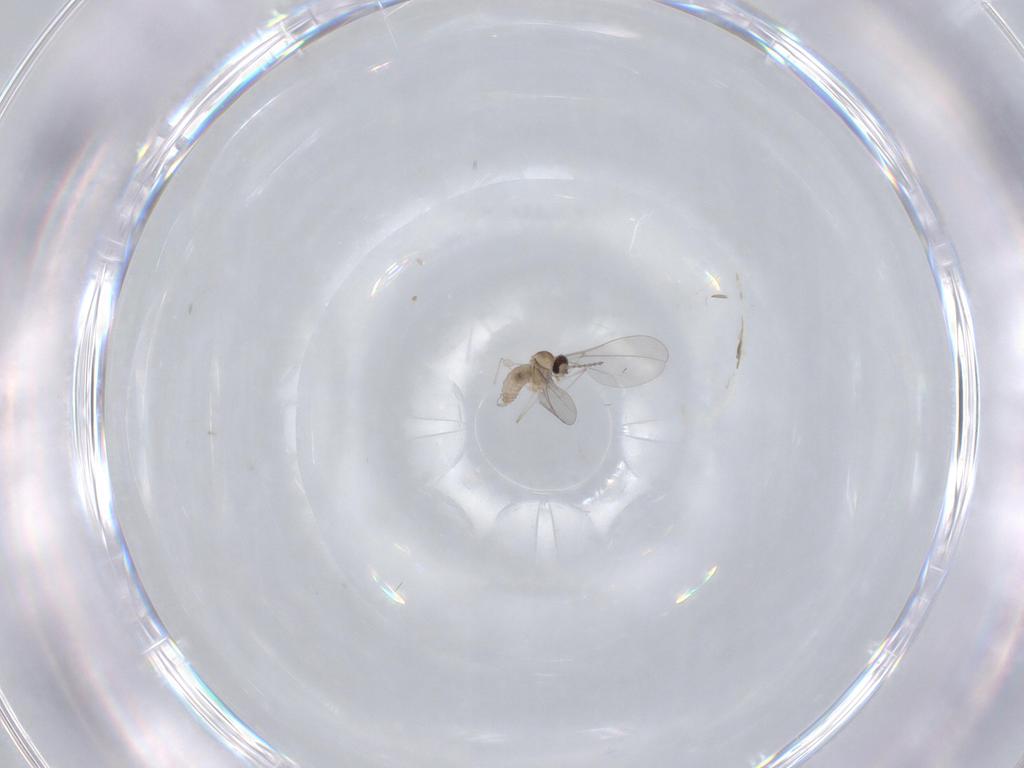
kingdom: Animalia
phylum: Arthropoda
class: Insecta
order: Diptera
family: Cecidomyiidae
